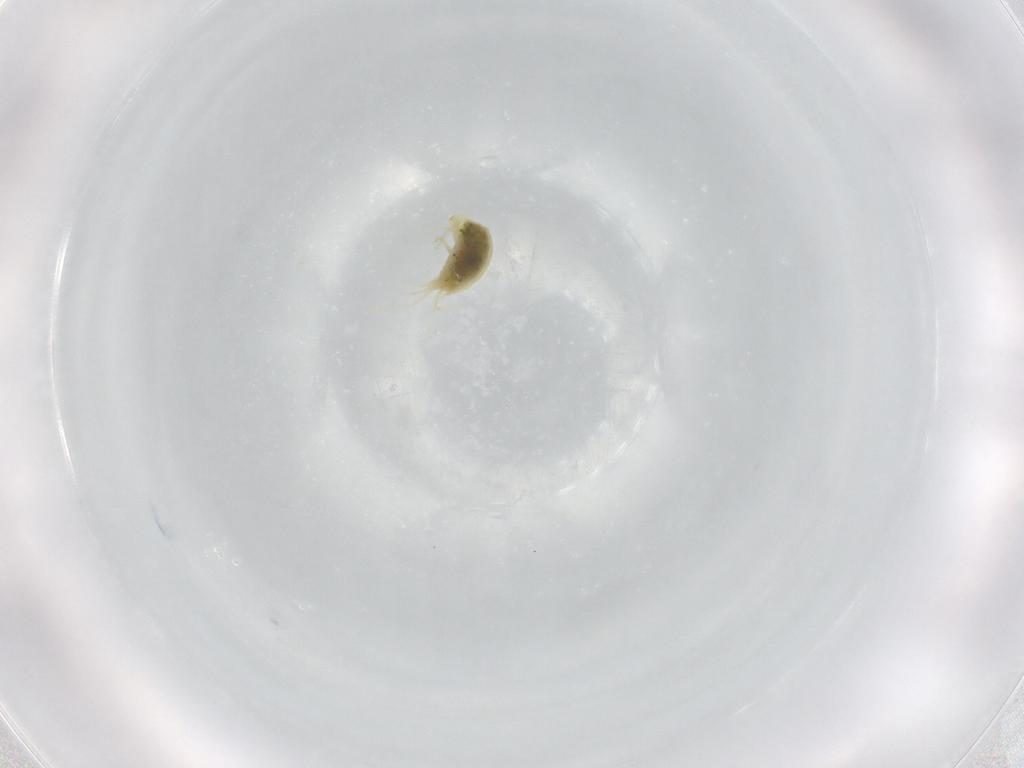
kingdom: Animalia
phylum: Arthropoda
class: Arachnida
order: Trombidiformes
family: Tetranychidae
